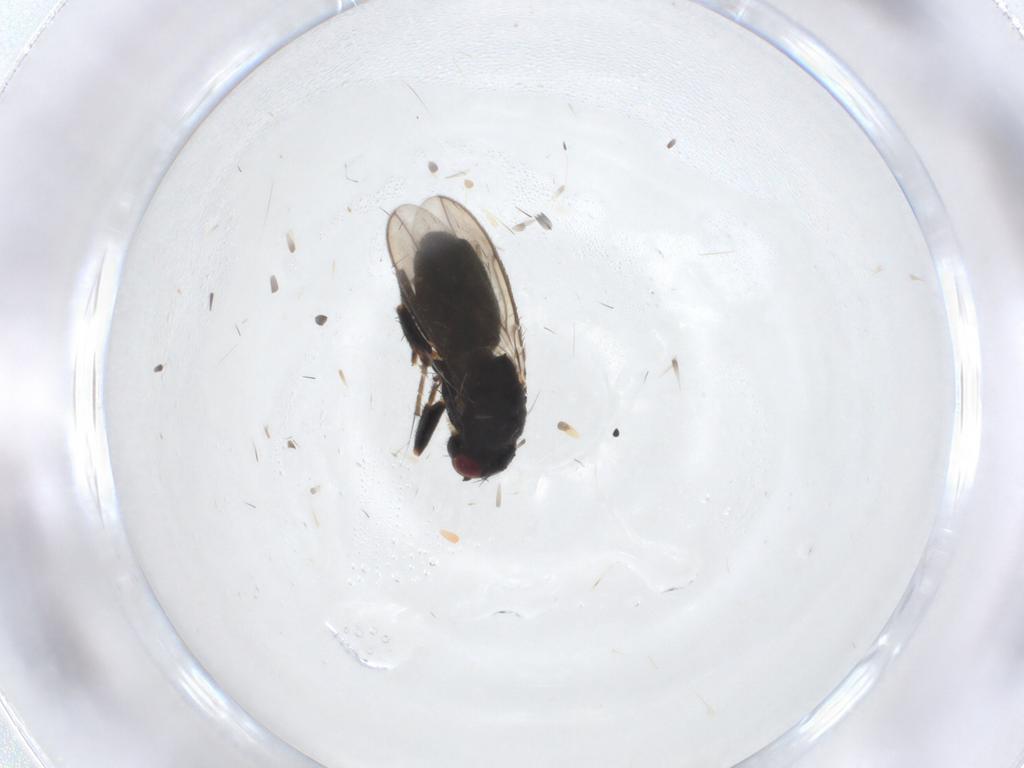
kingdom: Animalia
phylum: Arthropoda
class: Insecta
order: Diptera
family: Sphaeroceridae
